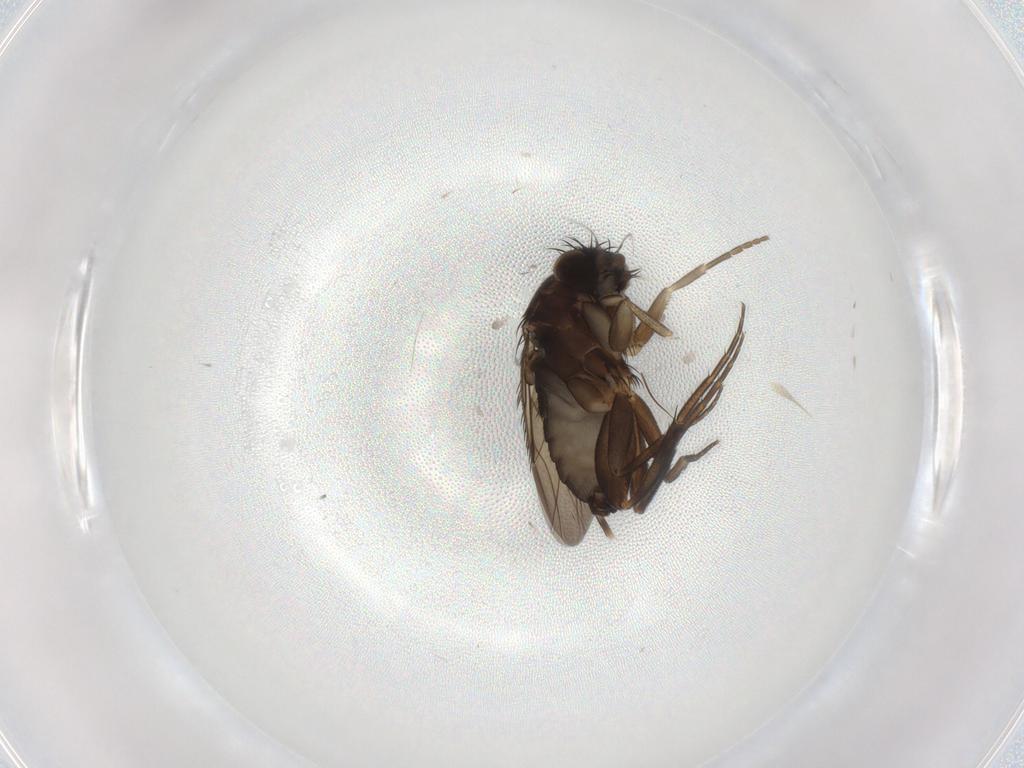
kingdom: Animalia
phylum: Arthropoda
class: Insecta
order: Diptera
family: Phoridae
